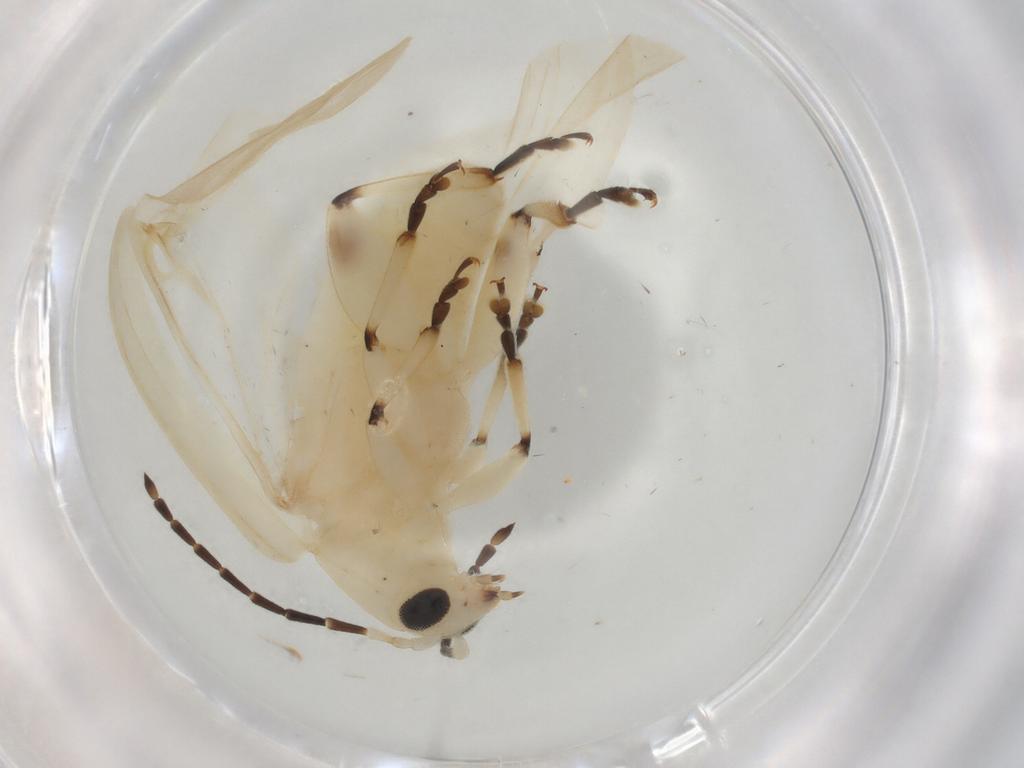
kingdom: Animalia
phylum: Arthropoda
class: Insecta
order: Coleoptera
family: Chrysomelidae
